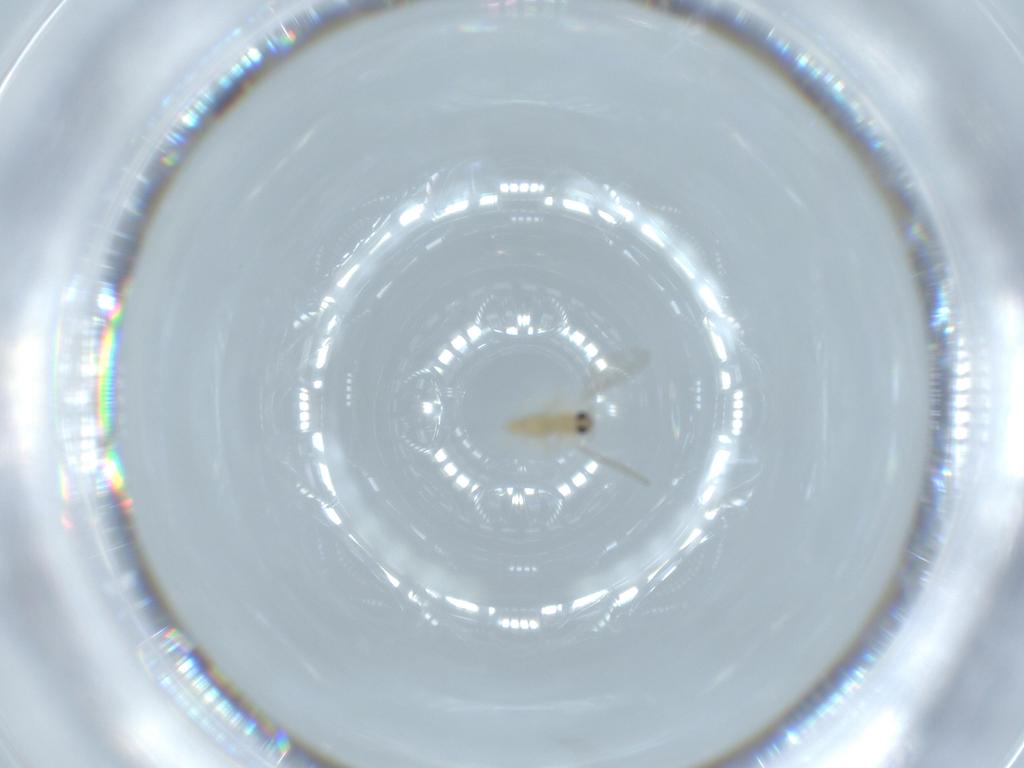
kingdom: Animalia
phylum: Arthropoda
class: Insecta
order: Diptera
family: Cecidomyiidae
